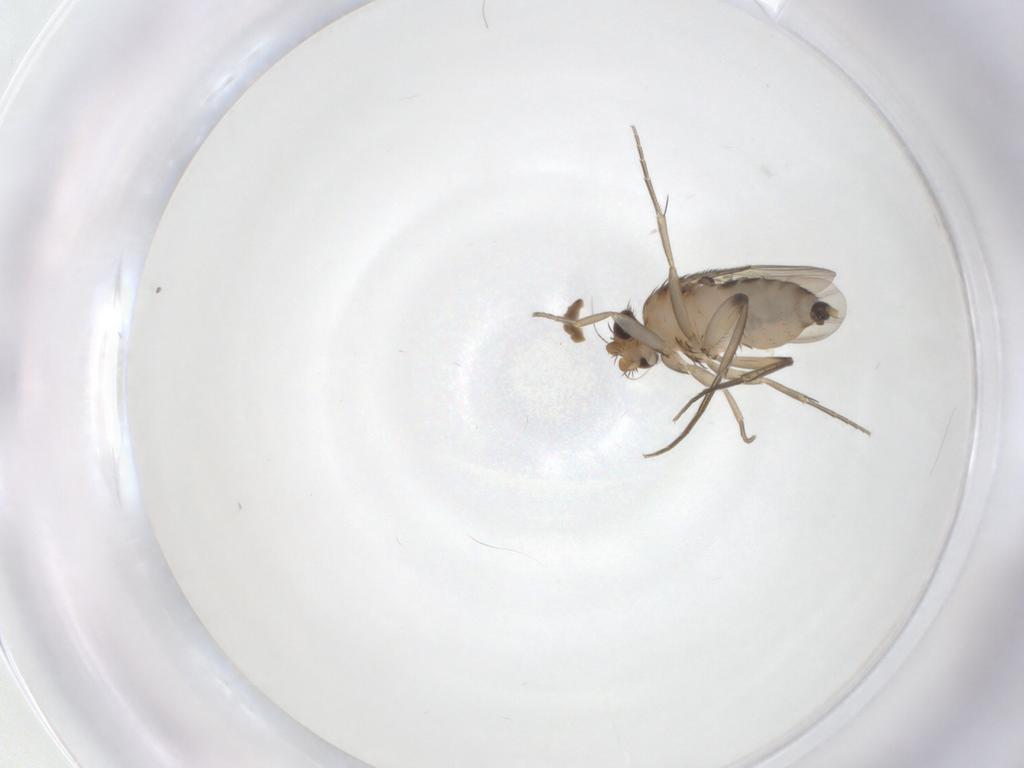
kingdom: Animalia
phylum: Arthropoda
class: Insecta
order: Diptera
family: Phoridae
